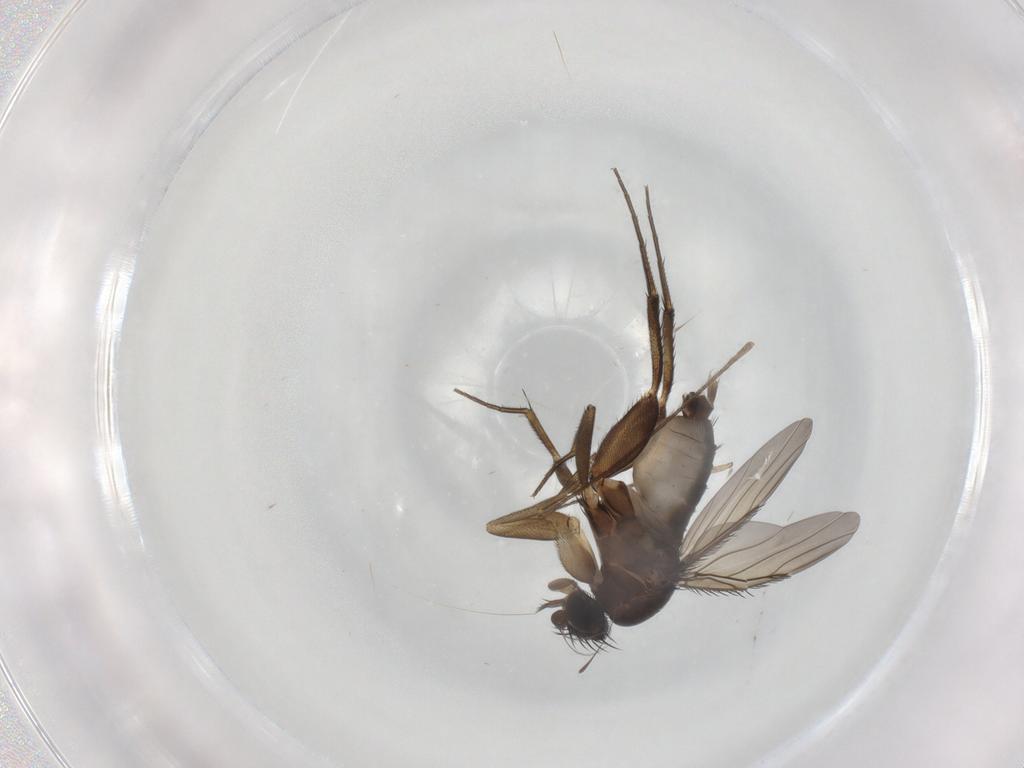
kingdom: Animalia
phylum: Arthropoda
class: Insecta
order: Diptera
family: Phoridae
